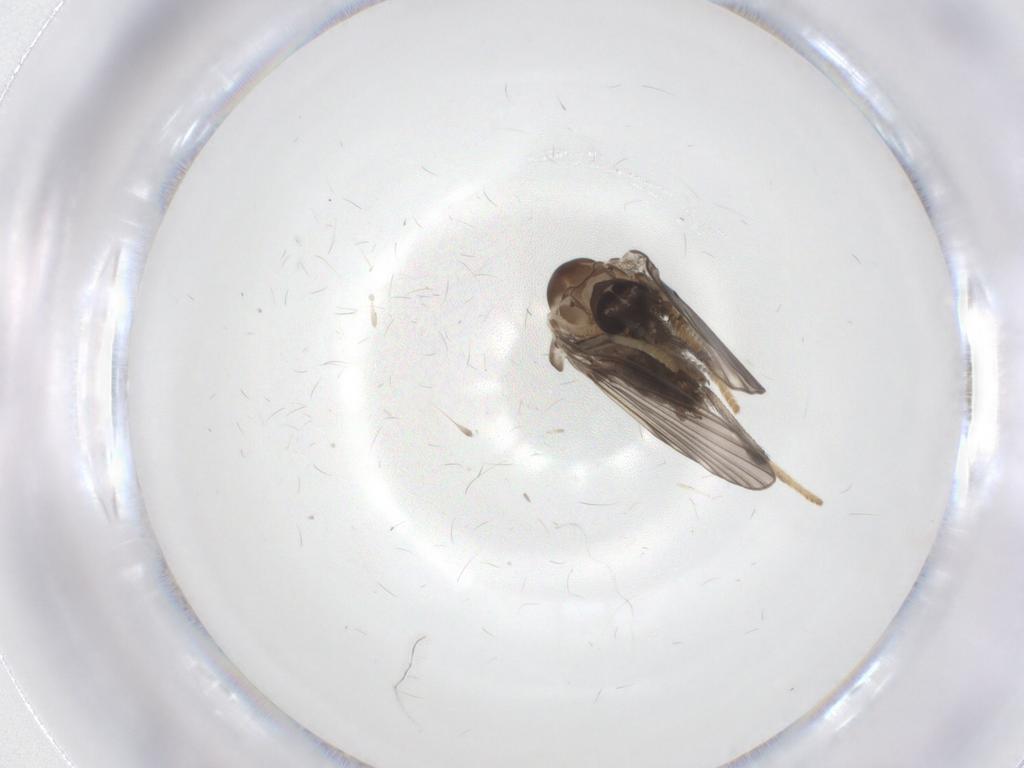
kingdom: Animalia
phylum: Arthropoda
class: Insecta
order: Diptera
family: Psychodidae
